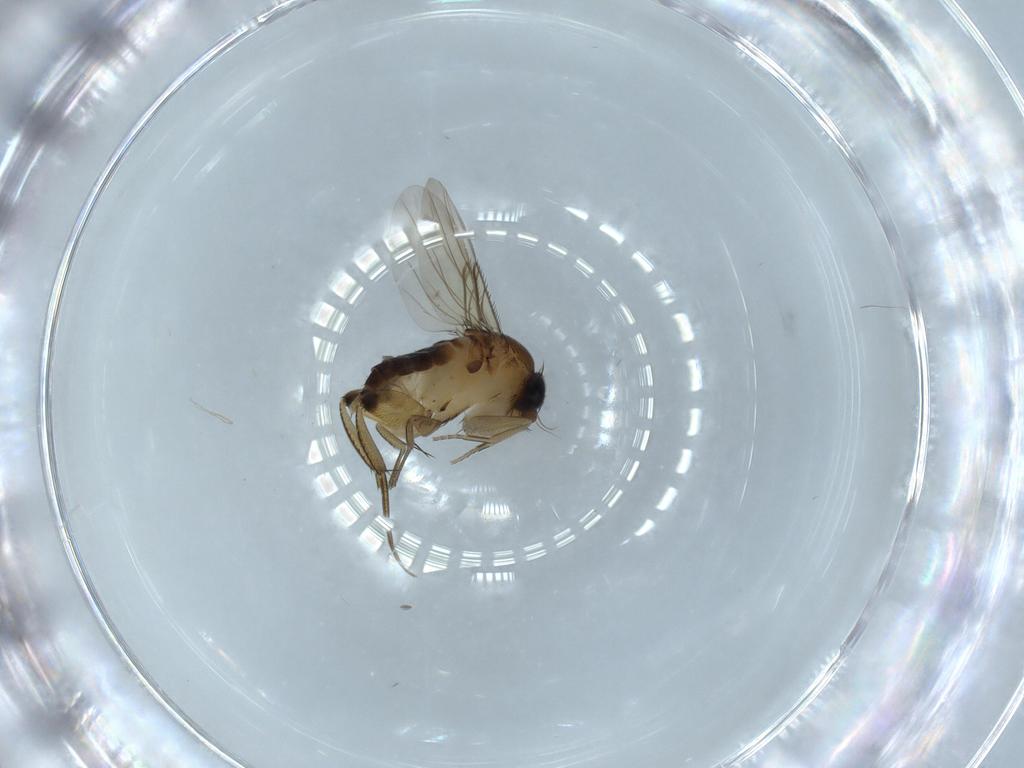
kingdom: Animalia
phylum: Arthropoda
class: Insecta
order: Diptera
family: Phoridae
